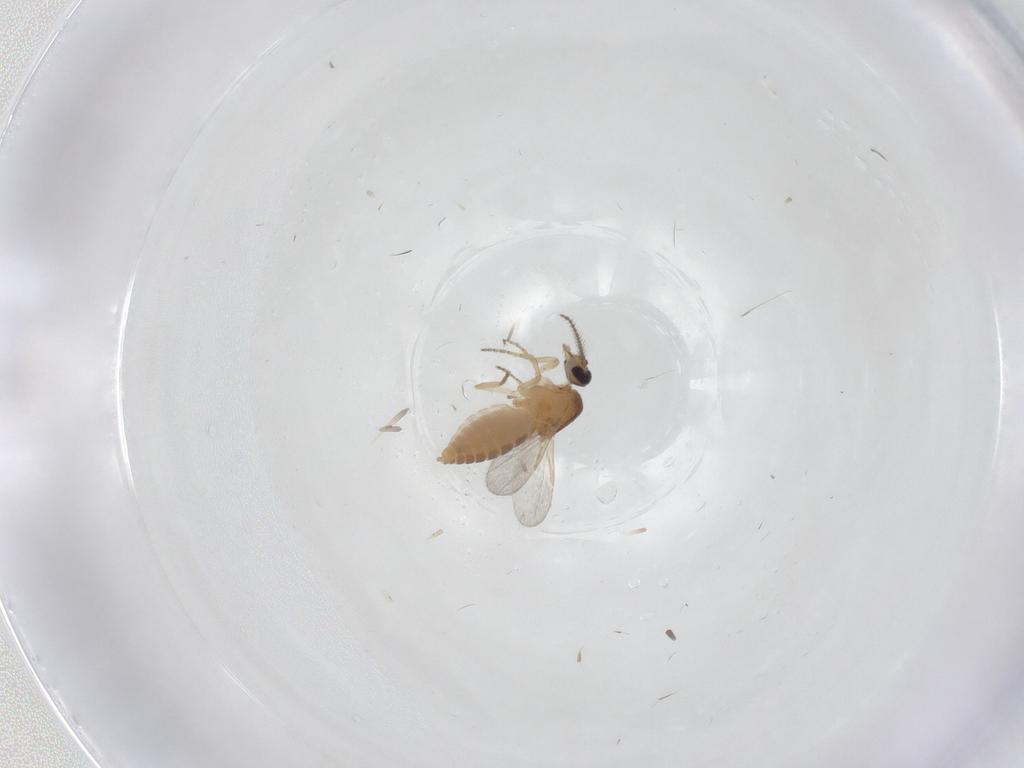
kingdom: Animalia
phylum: Arthropoda
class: Insecta
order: Diptera
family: Ceratopogonidae
